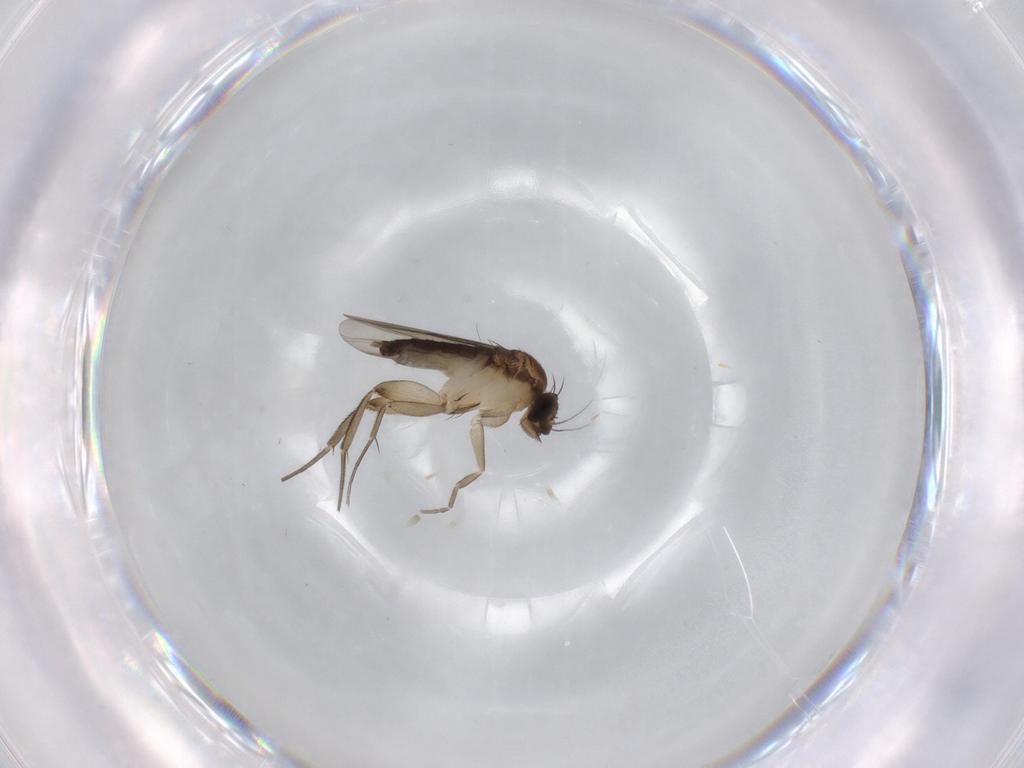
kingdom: Animalia
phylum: Arthropoda
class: Insecta
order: Diptera
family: Phoridae
